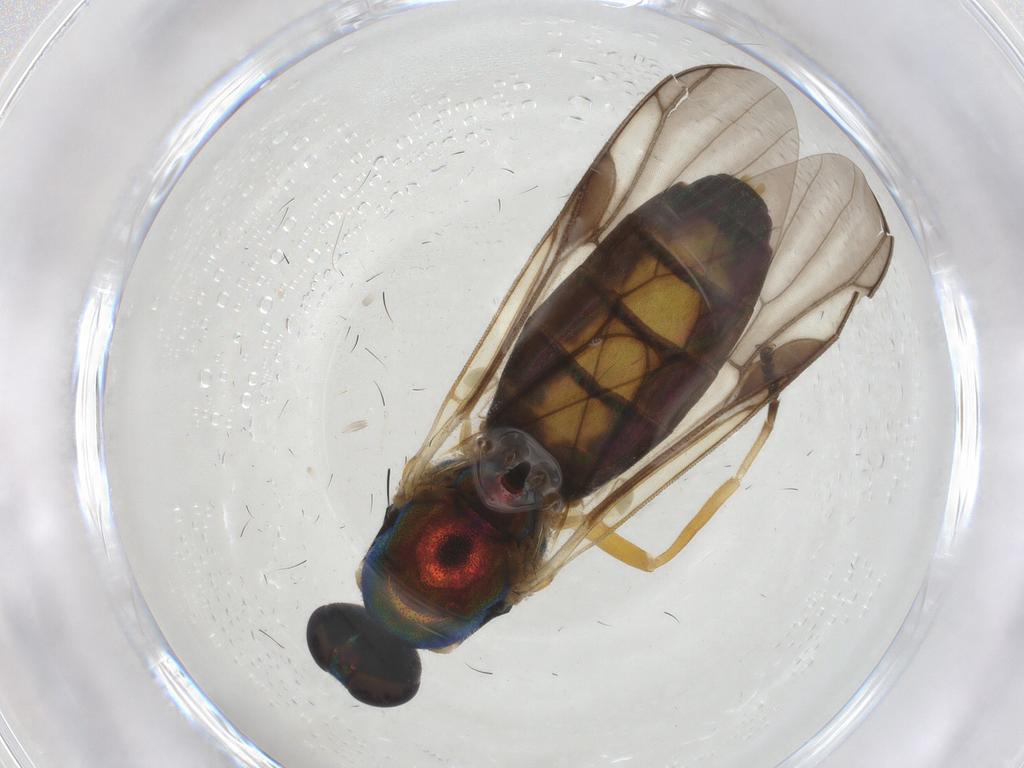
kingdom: Animalia
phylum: Arthropoda
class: Insecta
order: Diptera
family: Stratiomyidae
